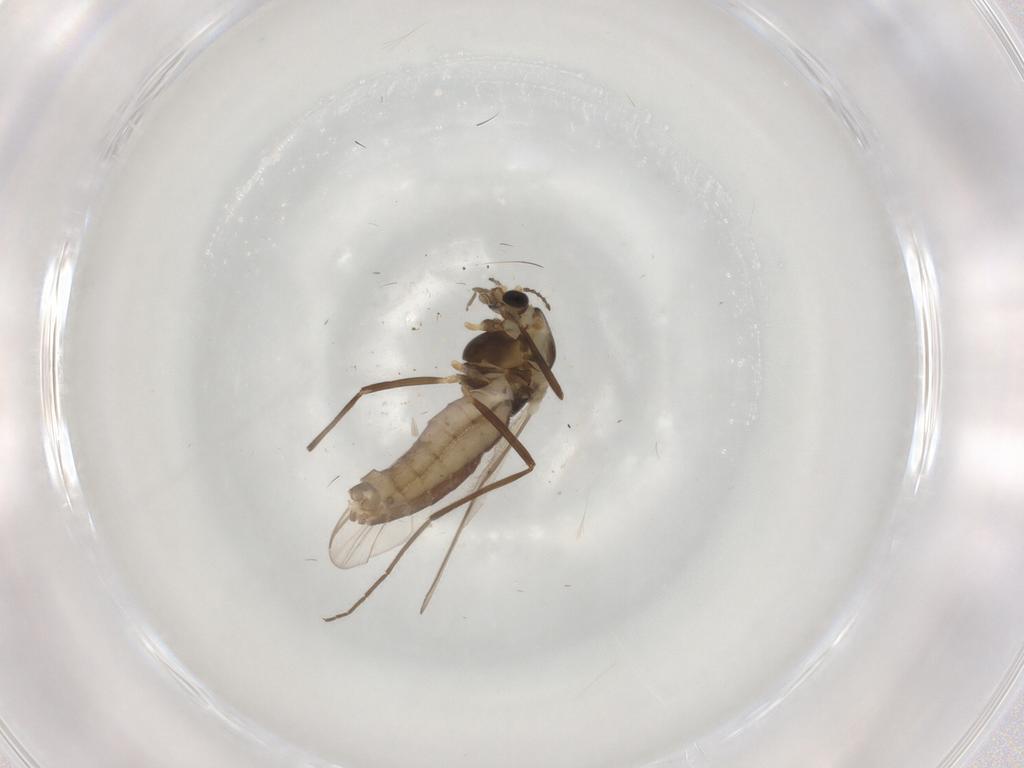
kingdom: Animalia
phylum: Arthropoda
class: Insecta
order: Diptera
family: Chironomidae
